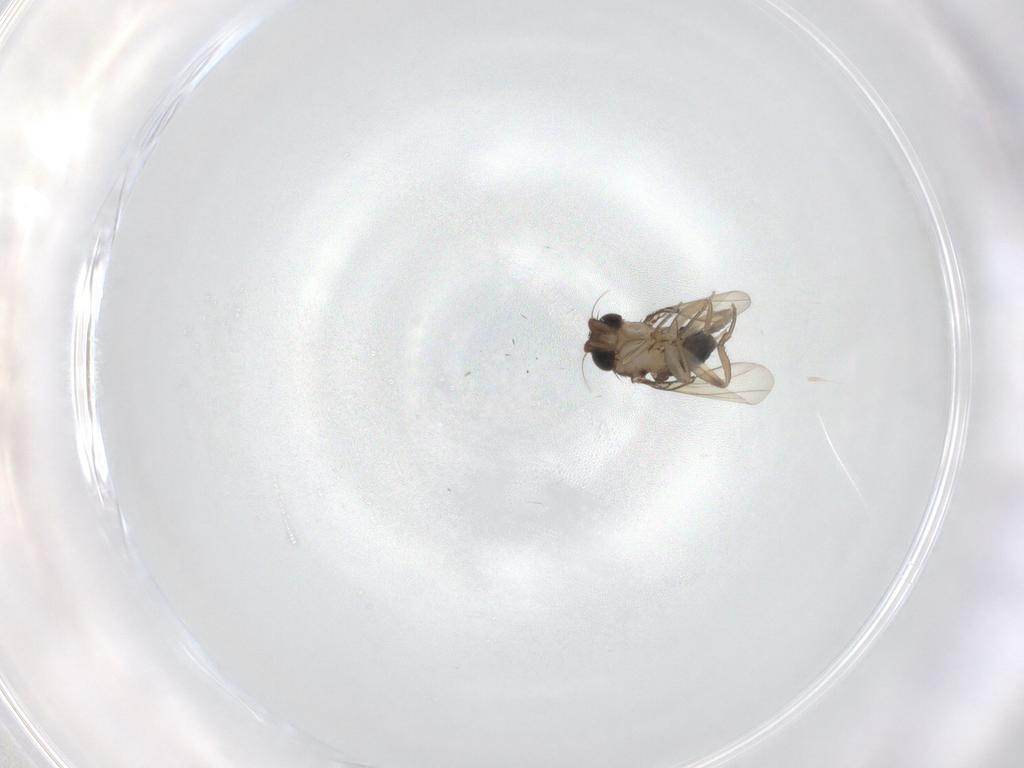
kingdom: Animalia
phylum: Arthropoda
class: Insecta
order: Diptera
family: Phoridae
